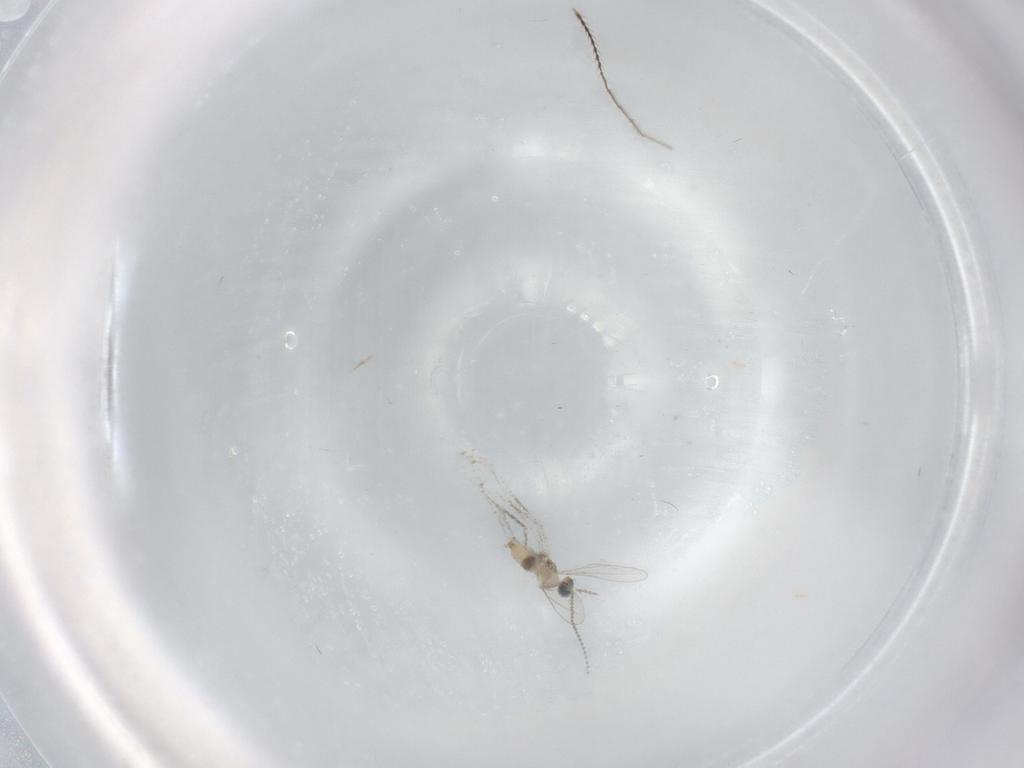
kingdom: Animalia
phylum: Arthropoda
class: Insecta
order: Diptera
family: Cecidomyiidae
